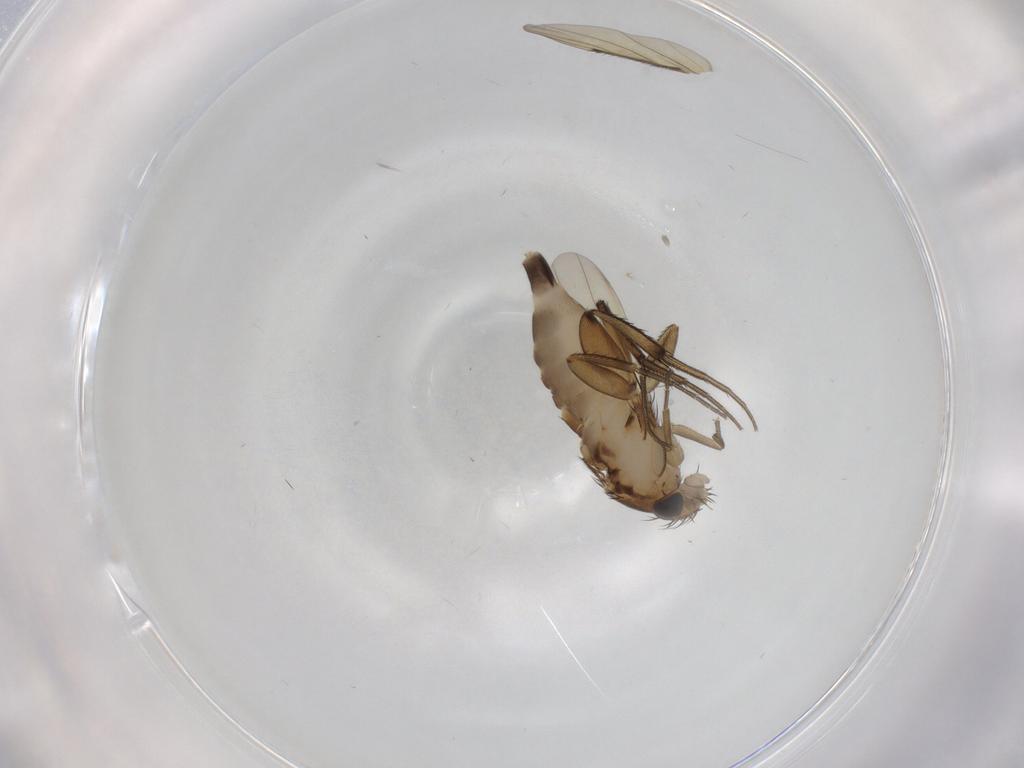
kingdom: Animalia
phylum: Arthropoda
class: Insecta
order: Diptera
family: Phoridae
